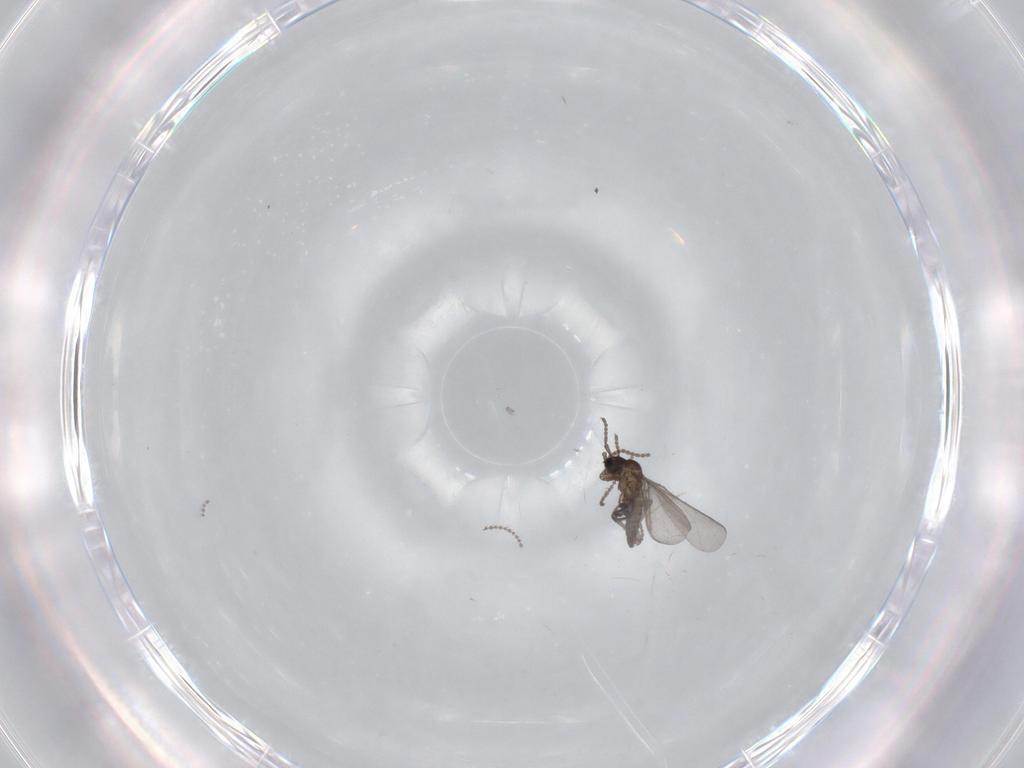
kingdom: Animalia
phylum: Arthropoda
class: Insecta
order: Diptera
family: Cecidomyiidae
